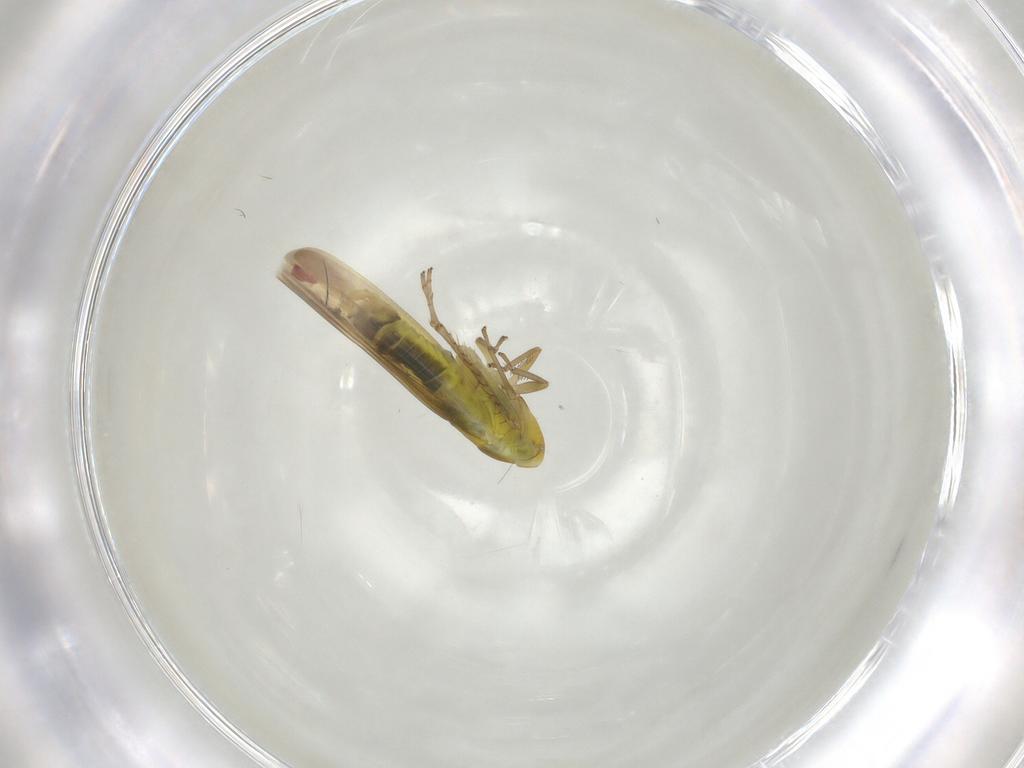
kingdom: Animalia
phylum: Arthropoda
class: Insecta
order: Hemiptera
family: Cicadellidae
